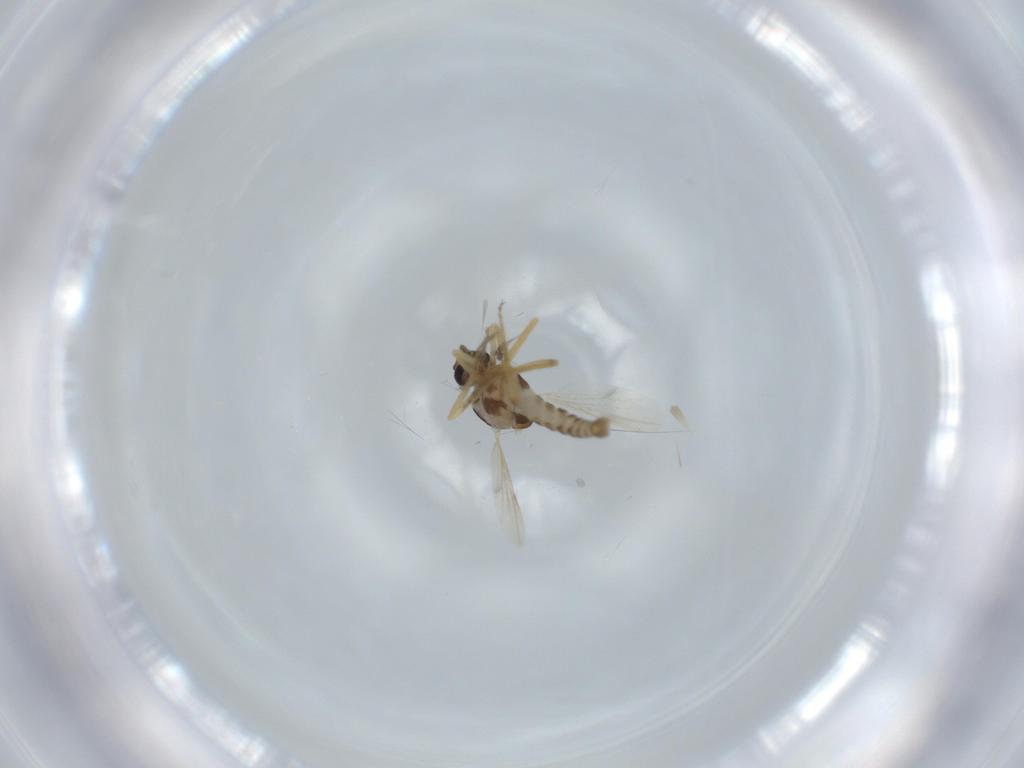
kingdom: Animalia
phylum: Arthropoda
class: Insecta
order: Diptera
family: Ceratopogonidae
